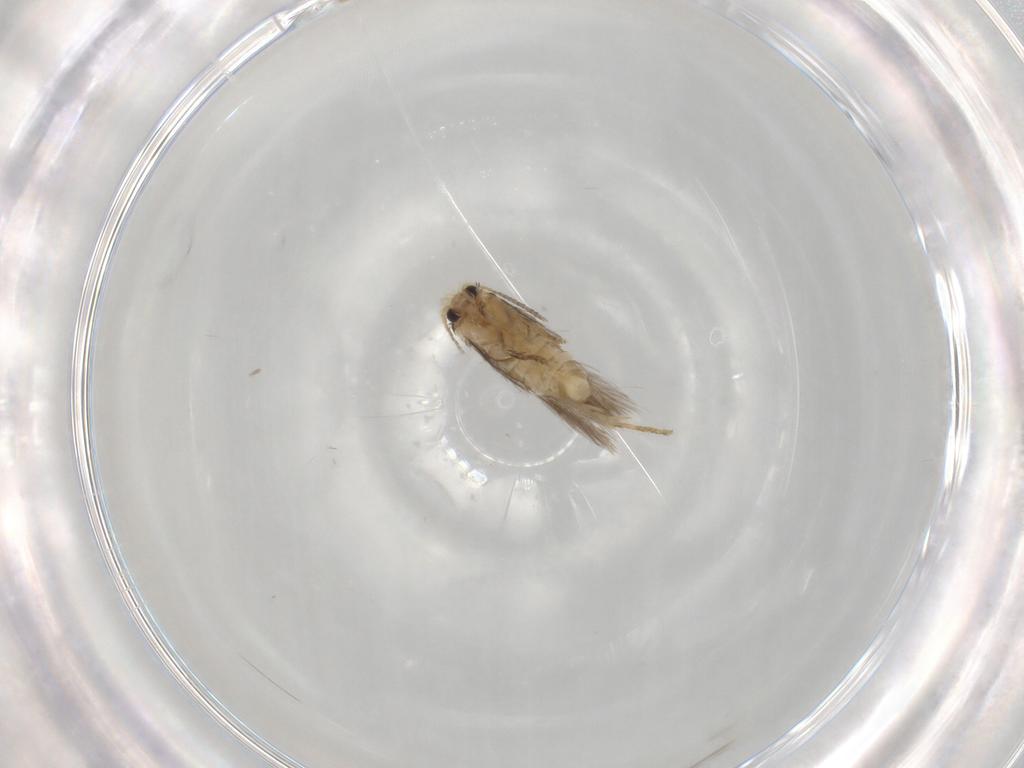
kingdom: Animalia
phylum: Arthropoda
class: Insecta
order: Lepidoptera
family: Nepticulidae
